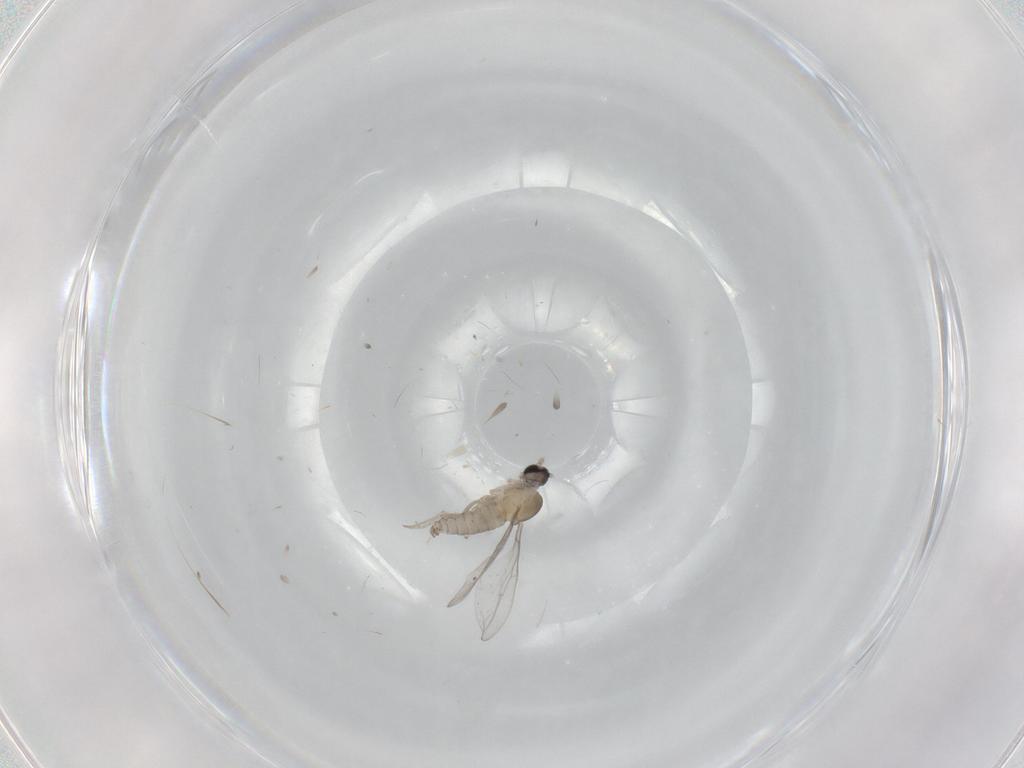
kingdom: Animalia
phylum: Arthropoda
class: Insecta
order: Diptera
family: Cecidomyiidae
